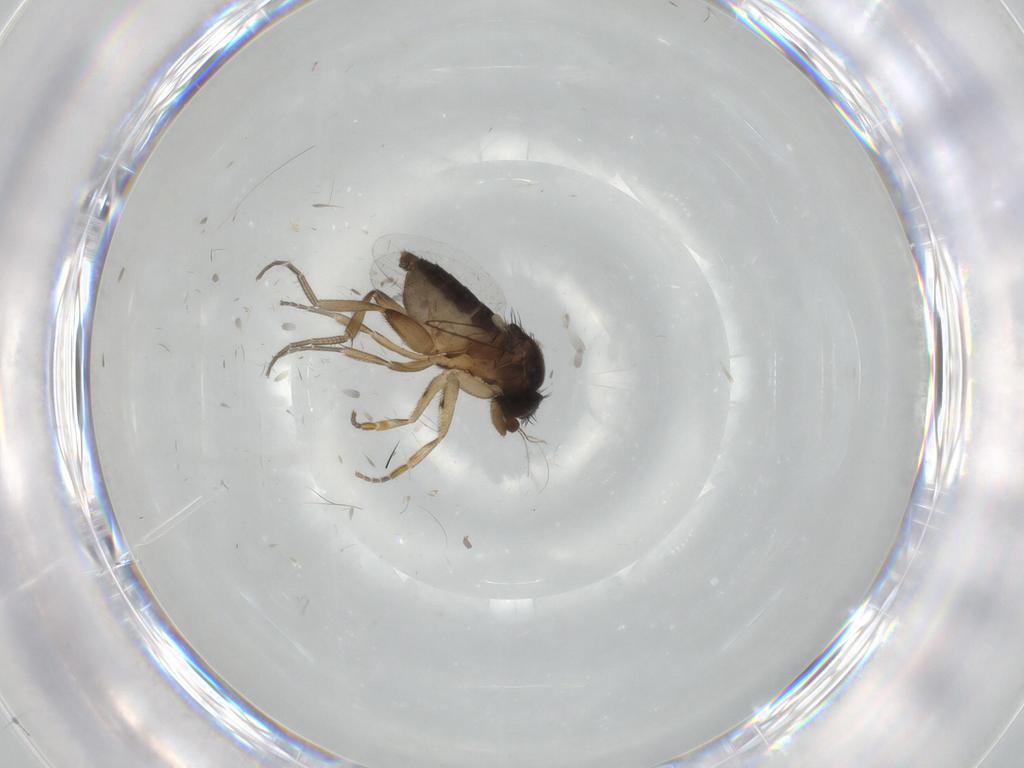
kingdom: Animalia
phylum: Arthropoda
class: Insecta
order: Diptera
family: Phoridae
